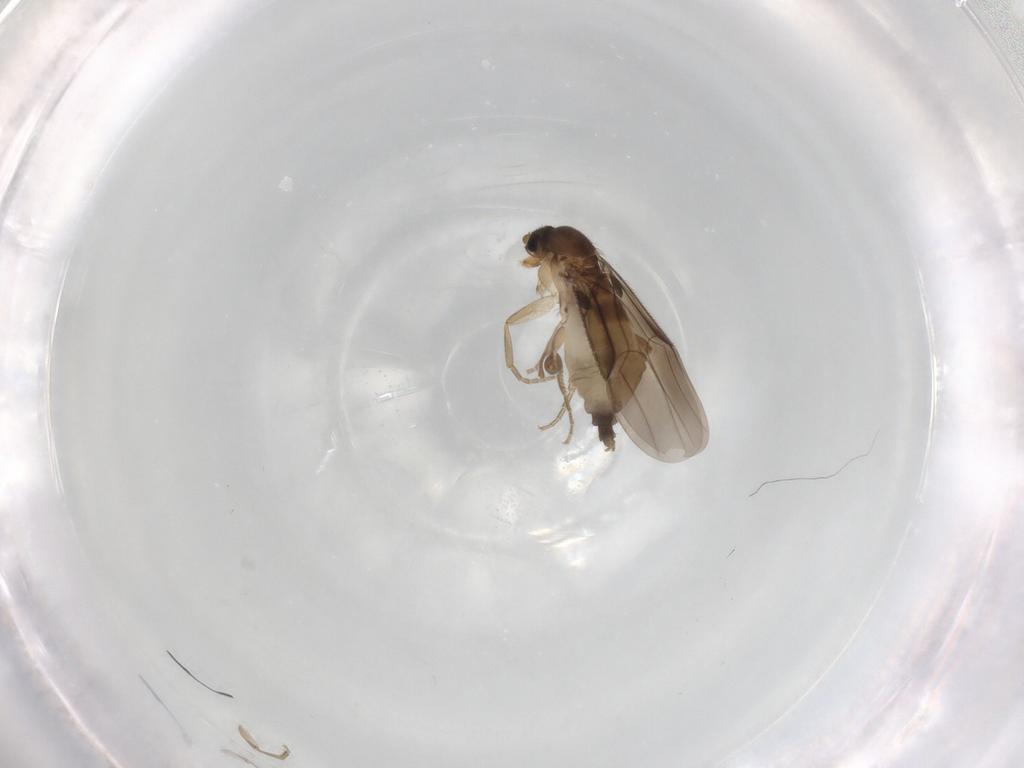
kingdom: Animalia
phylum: Arthropoda
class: Insecta
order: Diptera
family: Phoridae
